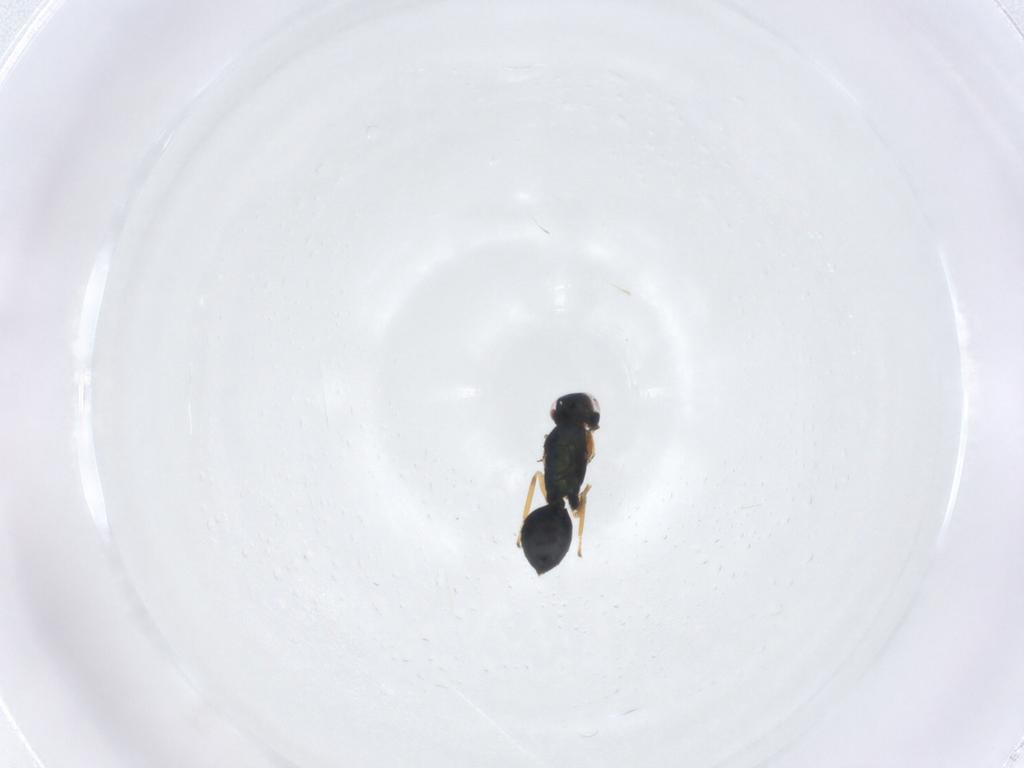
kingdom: Animalia
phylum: Arthropoda
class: Insecta
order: Hymenoptera
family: Eulophidae
